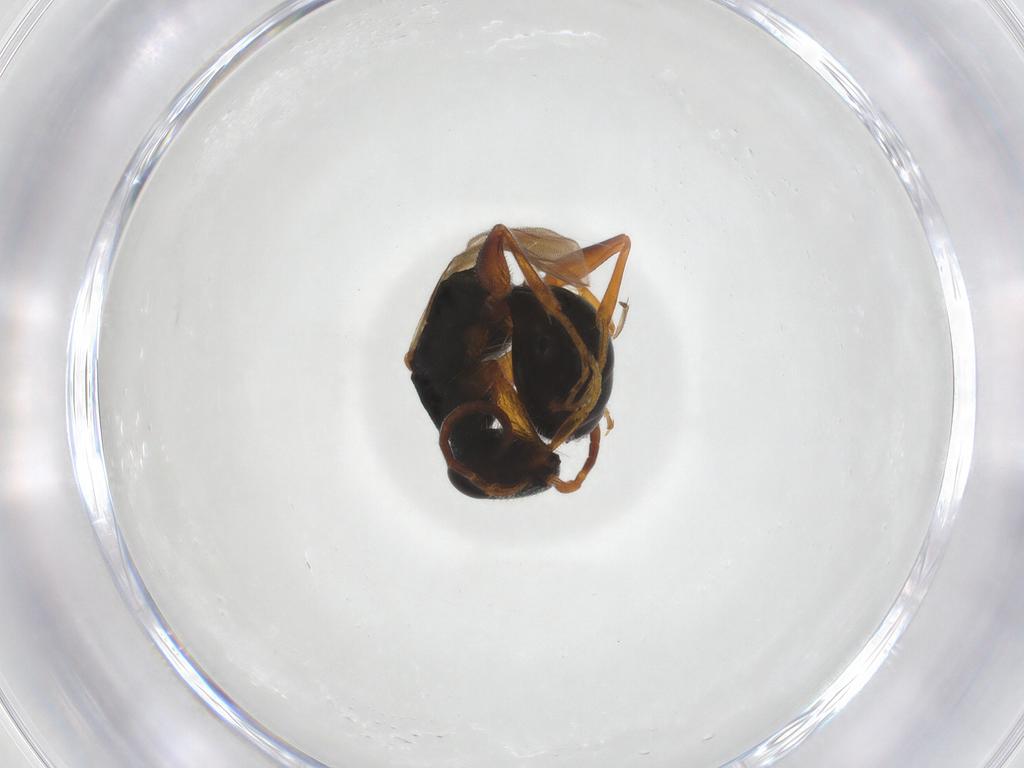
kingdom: Animalia
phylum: Arthropoda
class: Insecta
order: Hymenoptera
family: Bethylidae
